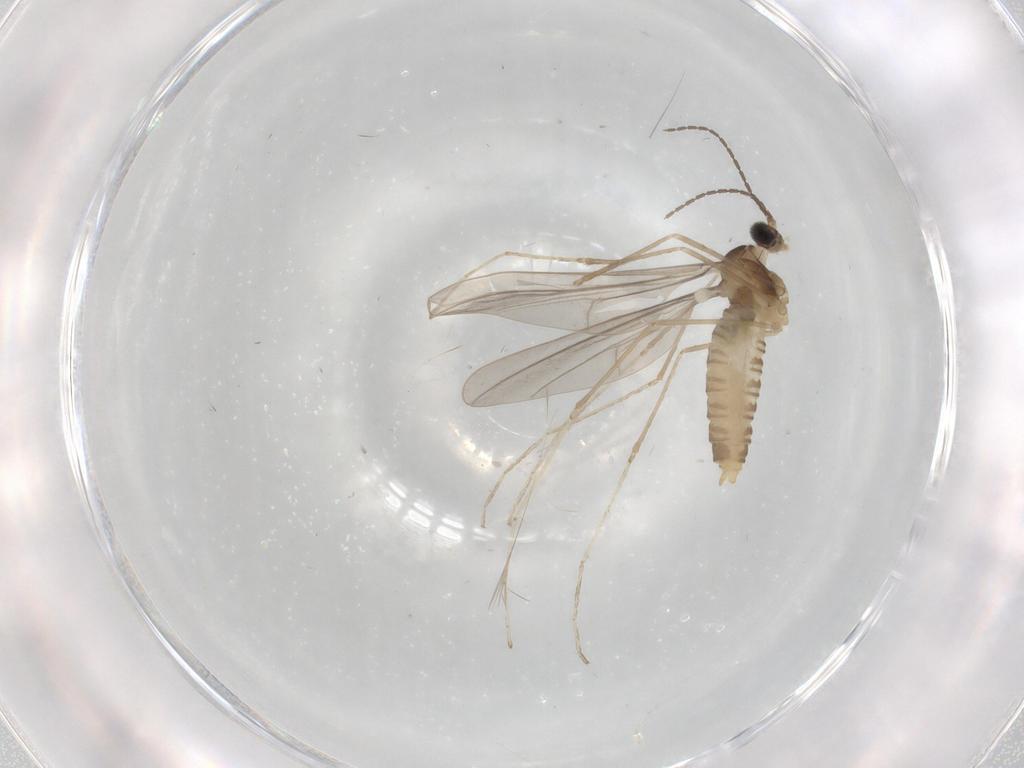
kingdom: Animalia
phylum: Arthropoda
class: Insecta
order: Diptera
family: Cecidomyiidae
